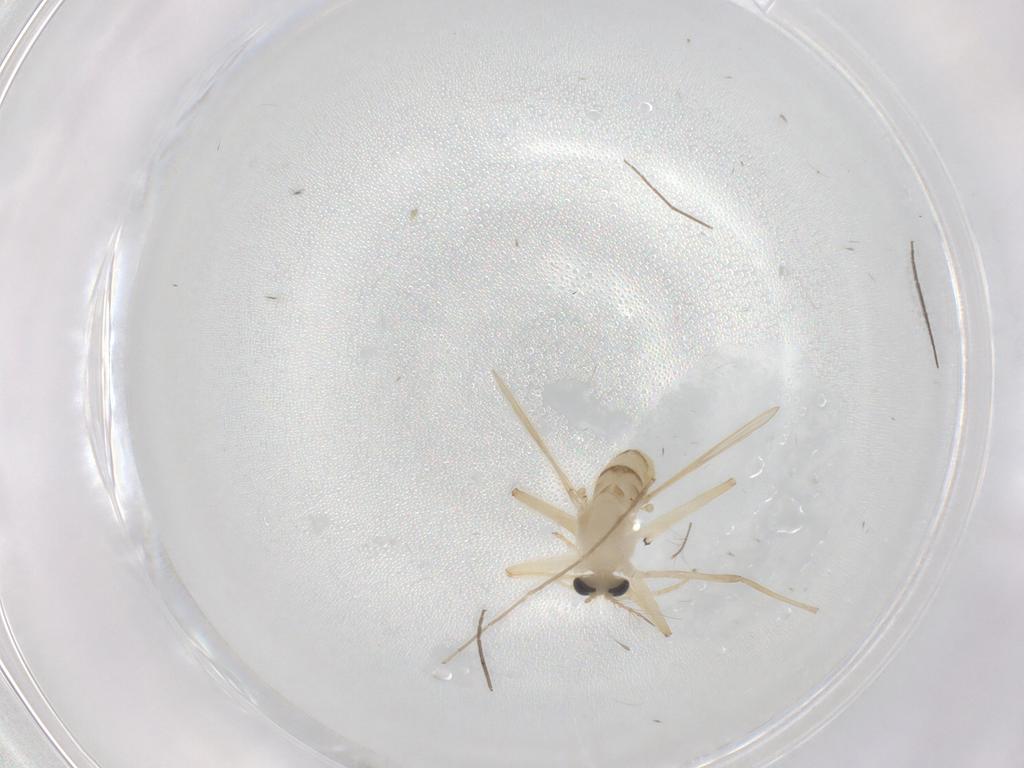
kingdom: Animalia
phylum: Arthropoda
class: Insecta
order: Diptera
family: Chironomidae
